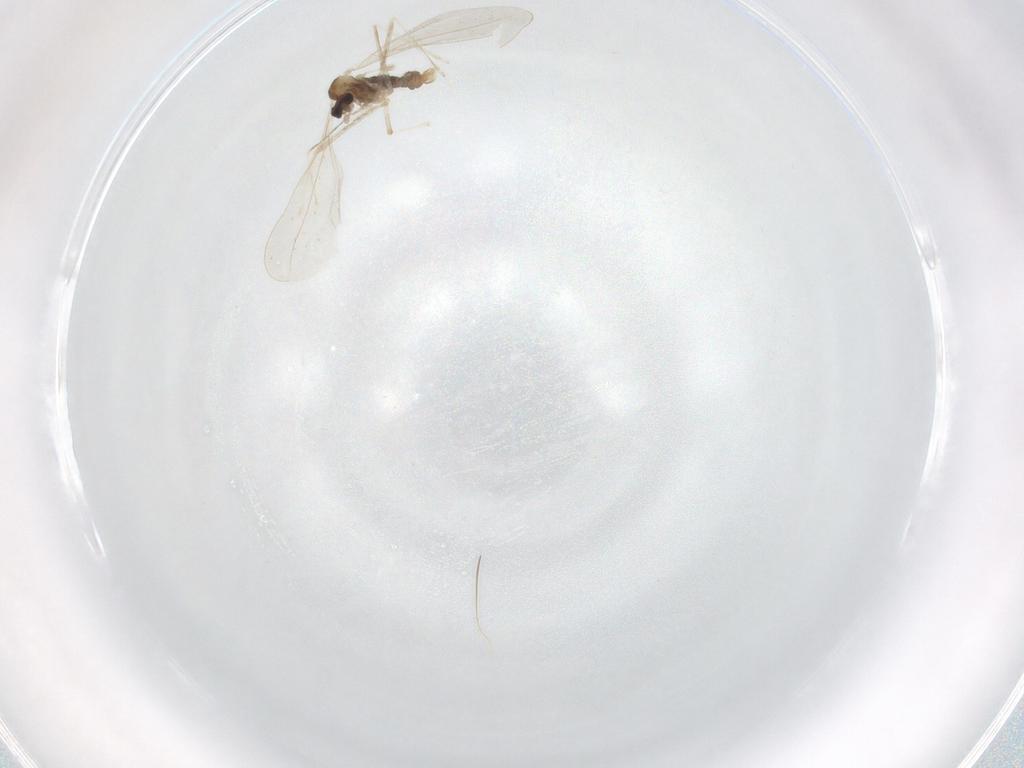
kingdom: Animalia
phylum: Arthropoda
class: Insecta
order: Diptera
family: Cecidomyiidae
